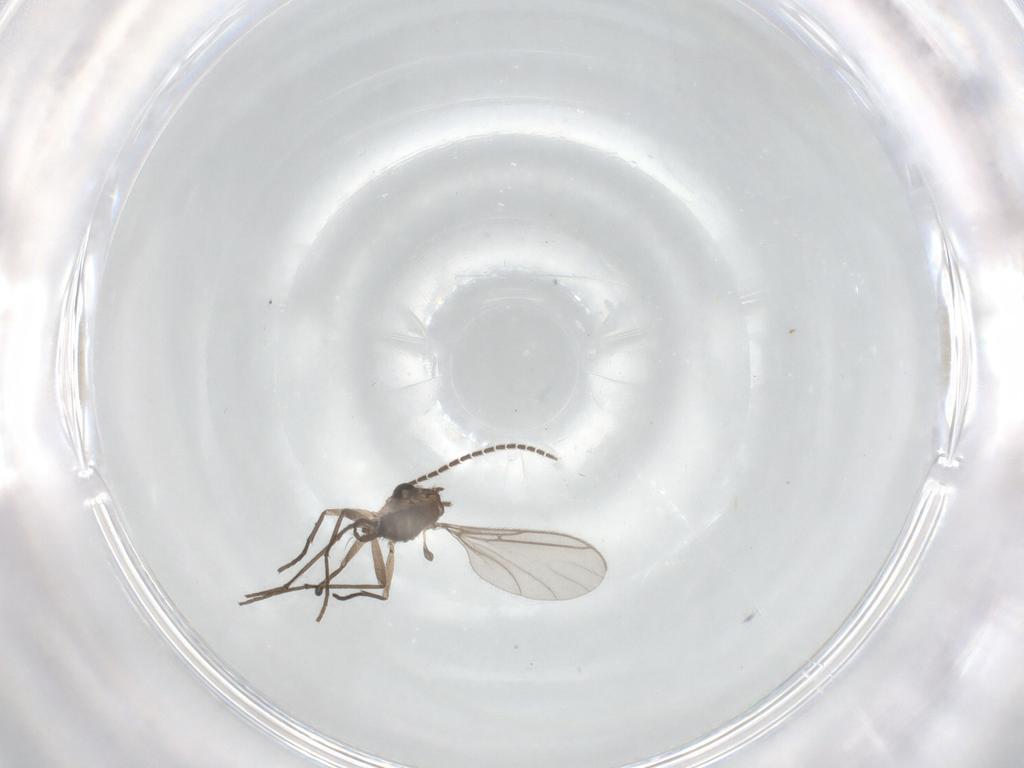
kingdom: Animalia
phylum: Arthropoda
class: Insecta
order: Diptera
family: Sciaridae
